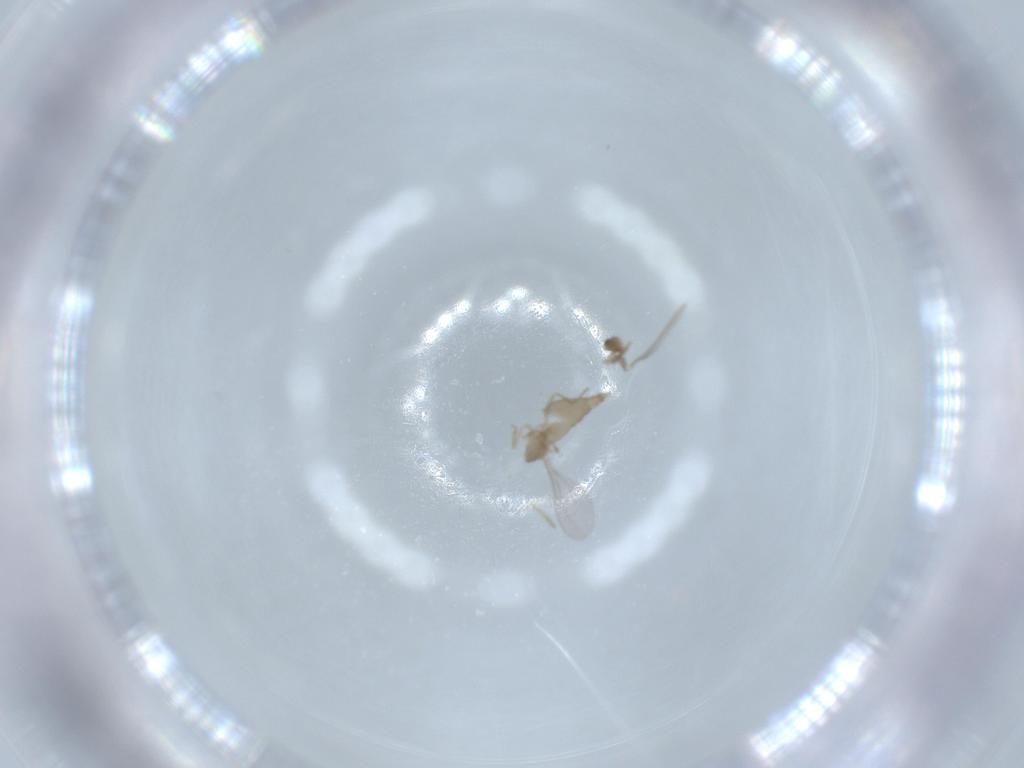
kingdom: Animalia
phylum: Arthropoda
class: Insecta
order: Diptera
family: Cecidomyiidae
